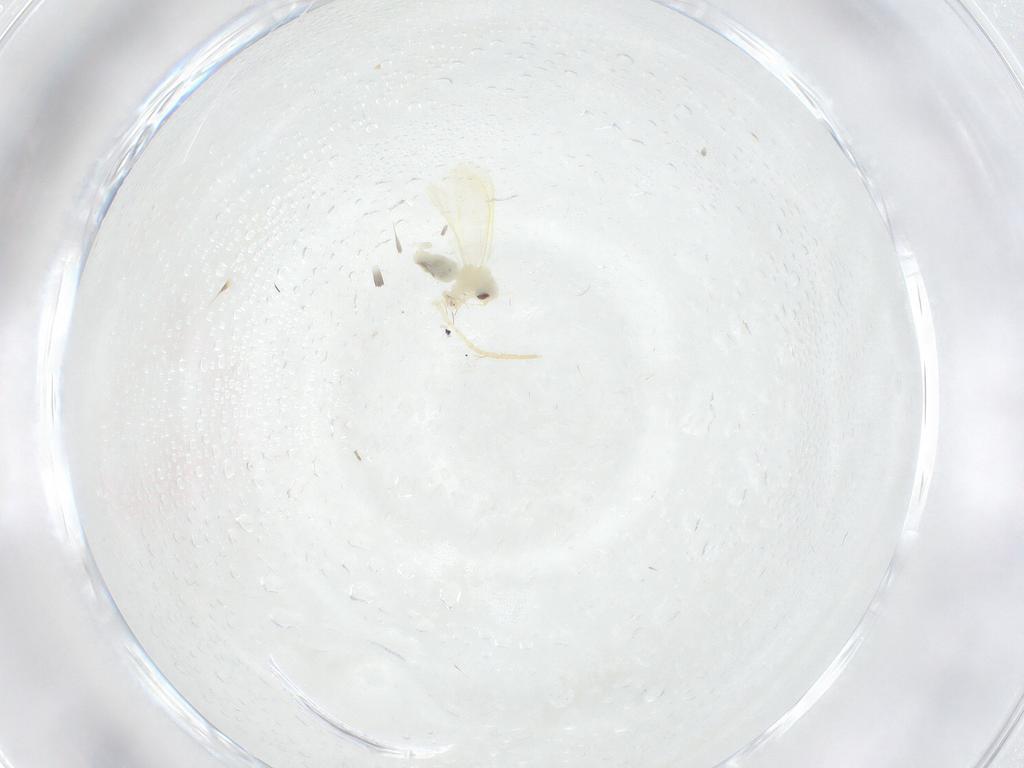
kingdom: Animalia
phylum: Arthropoda
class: Insecta
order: Hemiptera
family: Aleyrodidae
